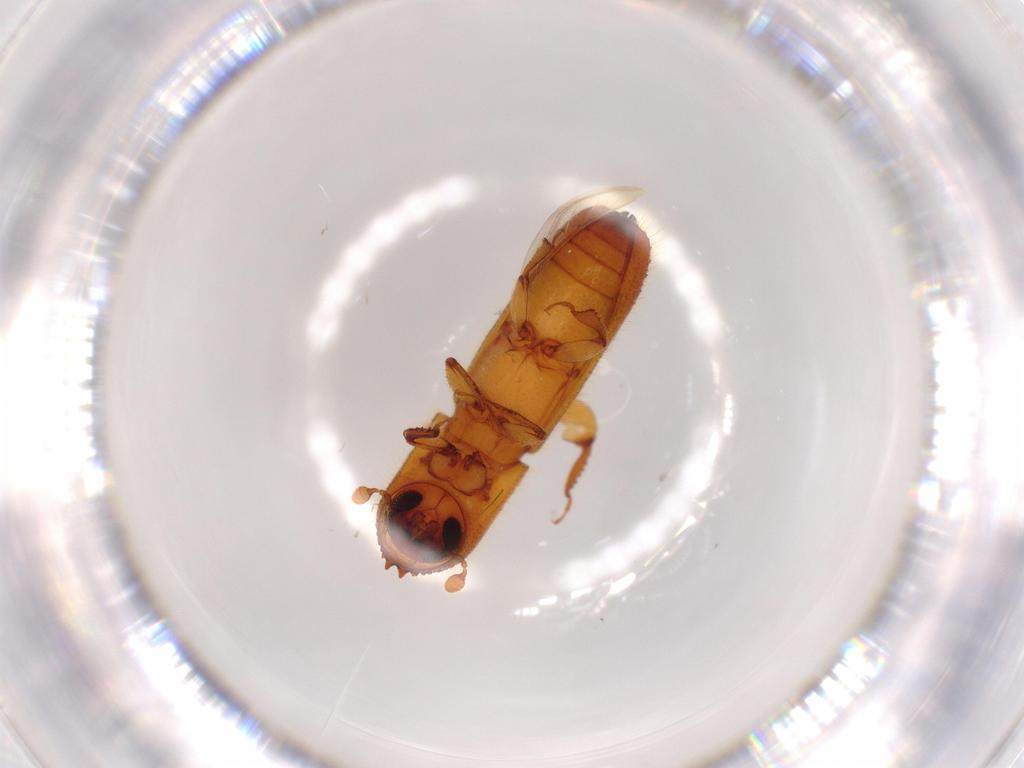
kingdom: Animalia
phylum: Arthropoda
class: Insecta
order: Coleoptera
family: Curculionidae
